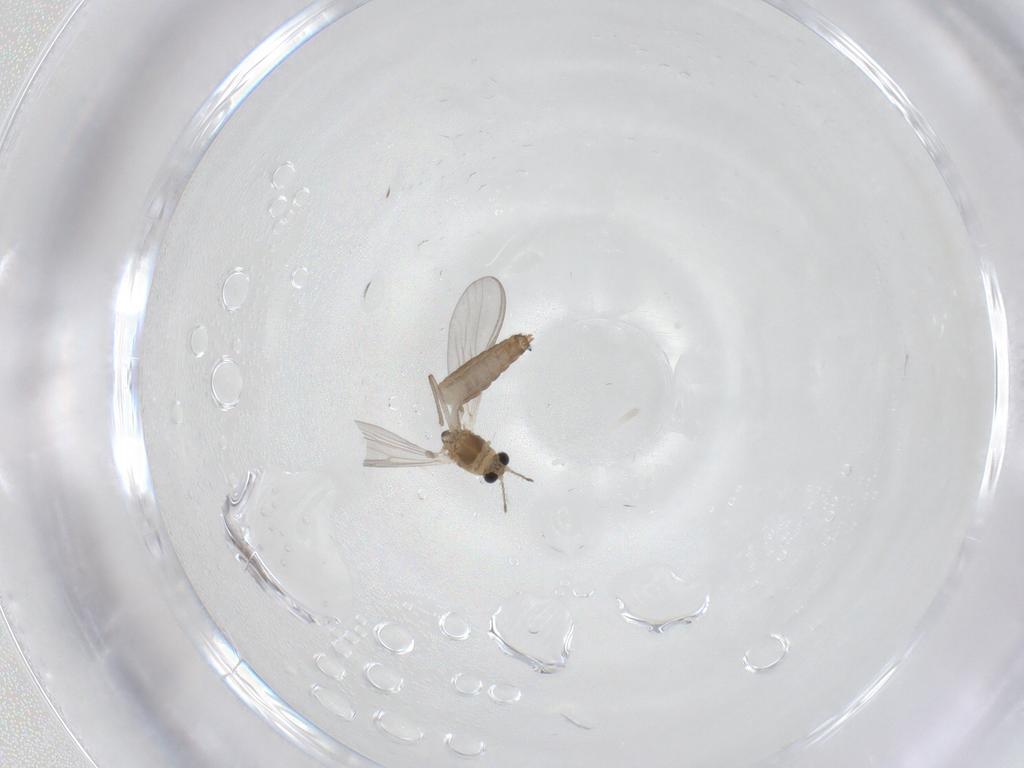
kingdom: Animalia
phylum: Arthropoda
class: Insecta
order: Diptera
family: Chironomidae
